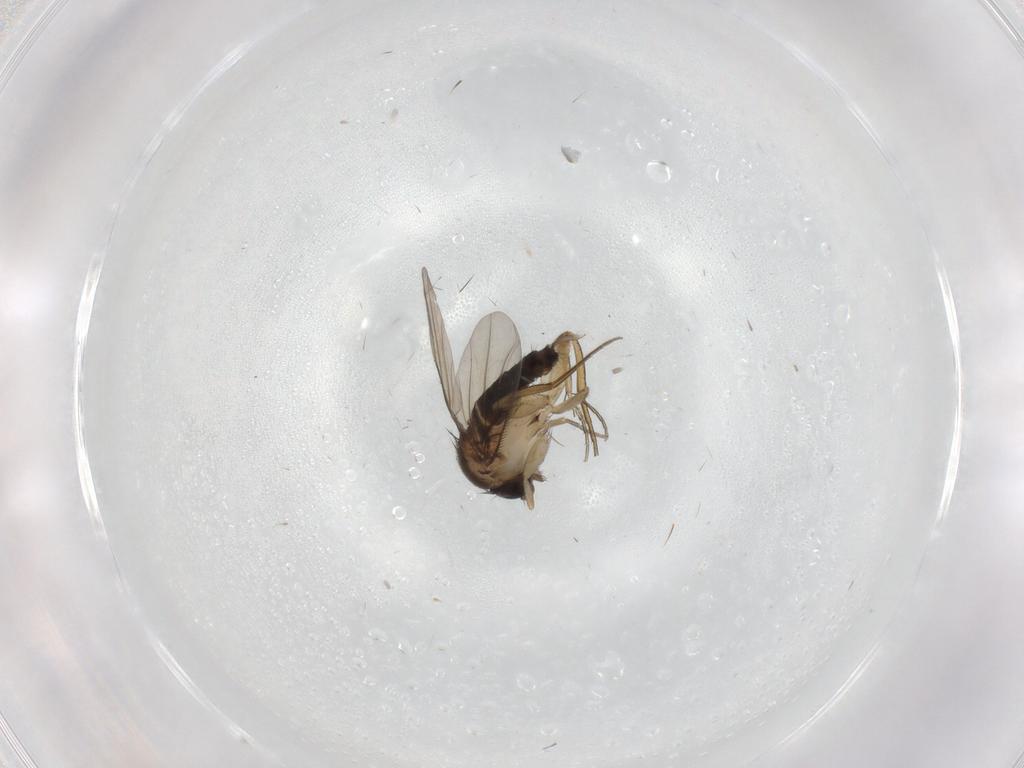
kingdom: Animalia
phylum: Arthropoda
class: Insecta
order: Diptera
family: Phoridae
